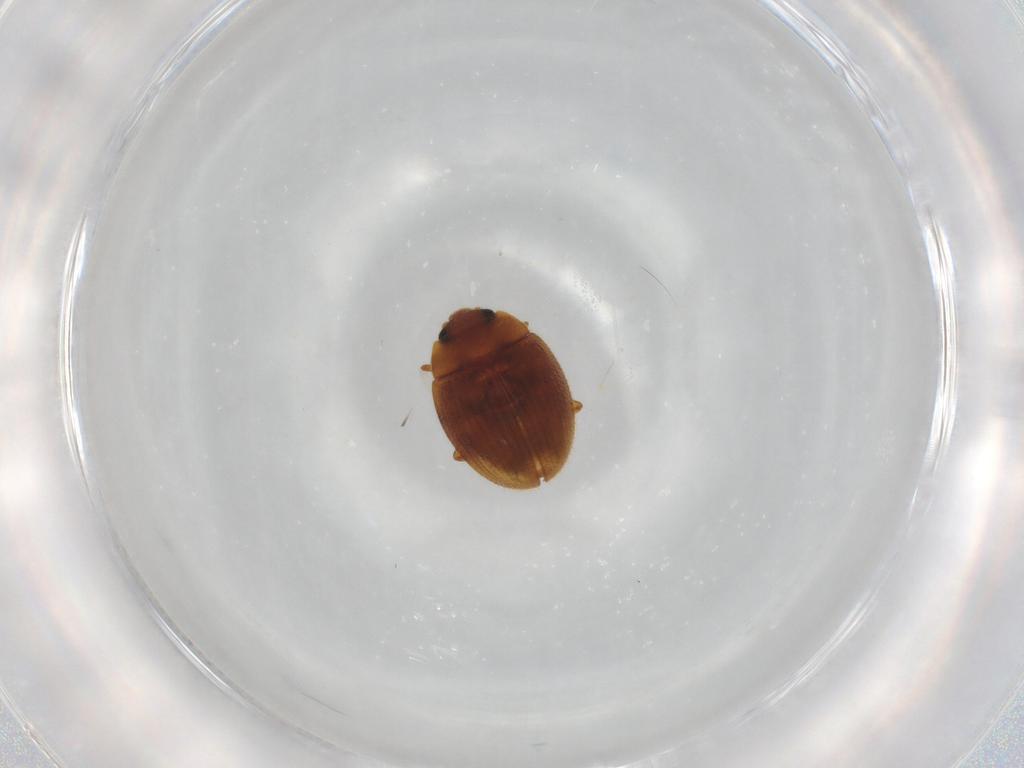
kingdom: Animalia
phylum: Arthropoda
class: Insecta
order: Coleoptera
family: Euxestidae
